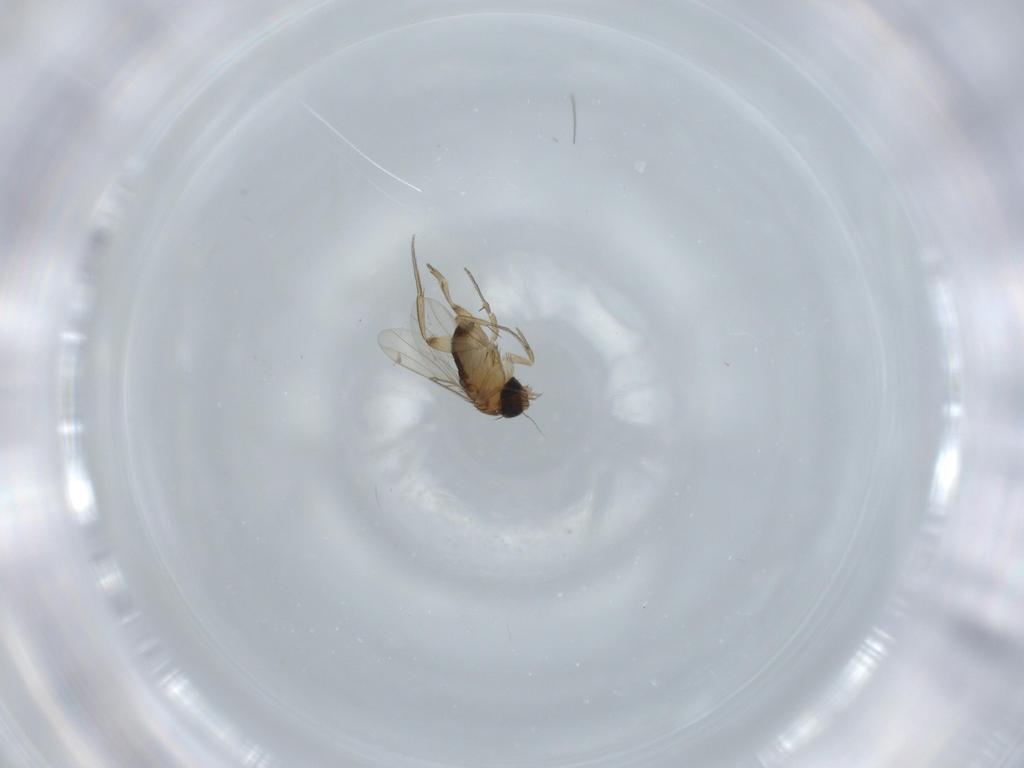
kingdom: Animalia
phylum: Arthropoda
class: Insecta
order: Diptera
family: Phoridae
